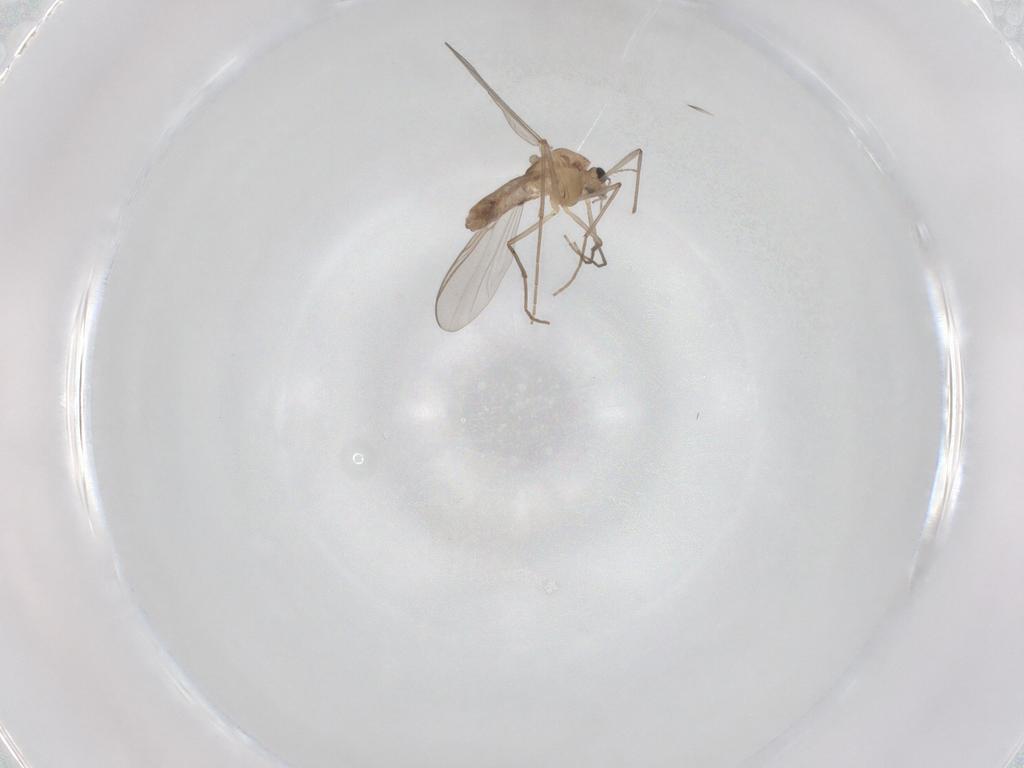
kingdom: Animalia
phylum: Arthropoda
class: Insecta
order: Diptera
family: Chironomidae
